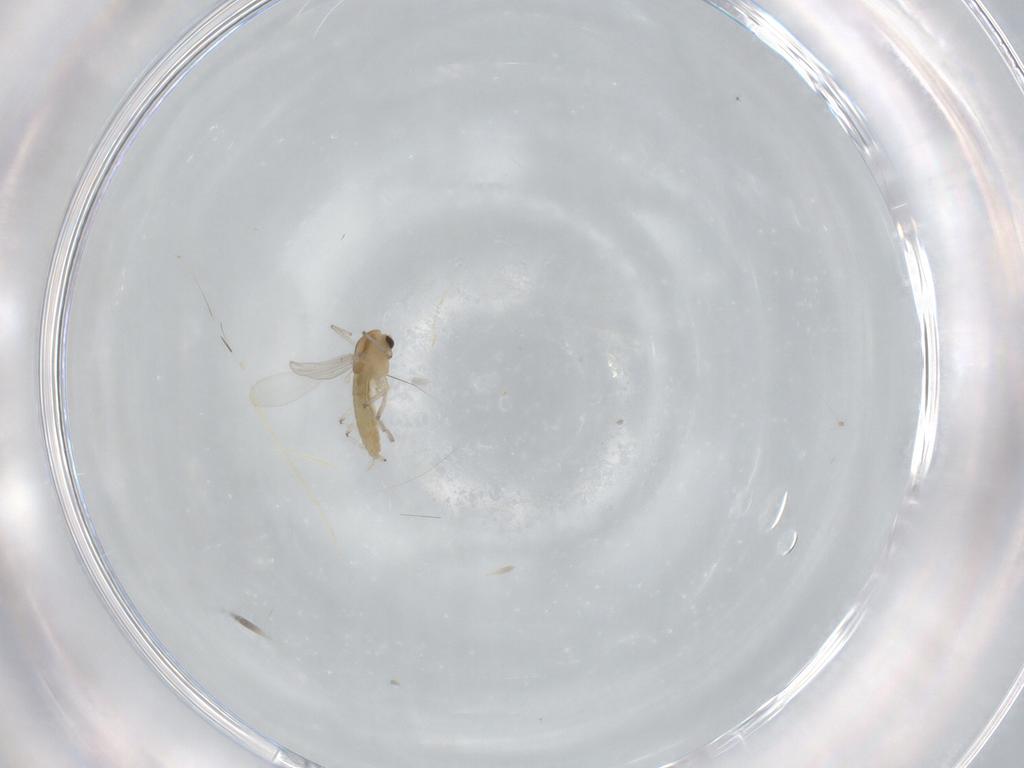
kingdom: Animalia
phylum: Arthropoda
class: Insecta
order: Diptera
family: Chironomidae
